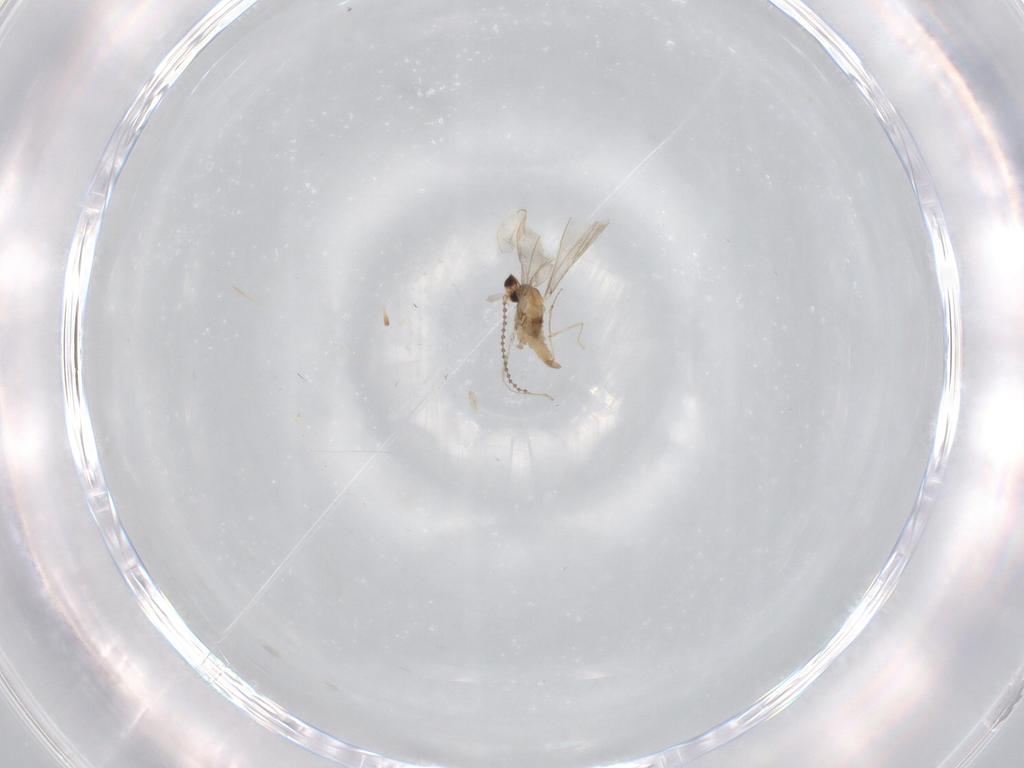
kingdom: Animalia
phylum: Arthropoda
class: Insecta
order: Diptera
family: Cecidomyiidae
